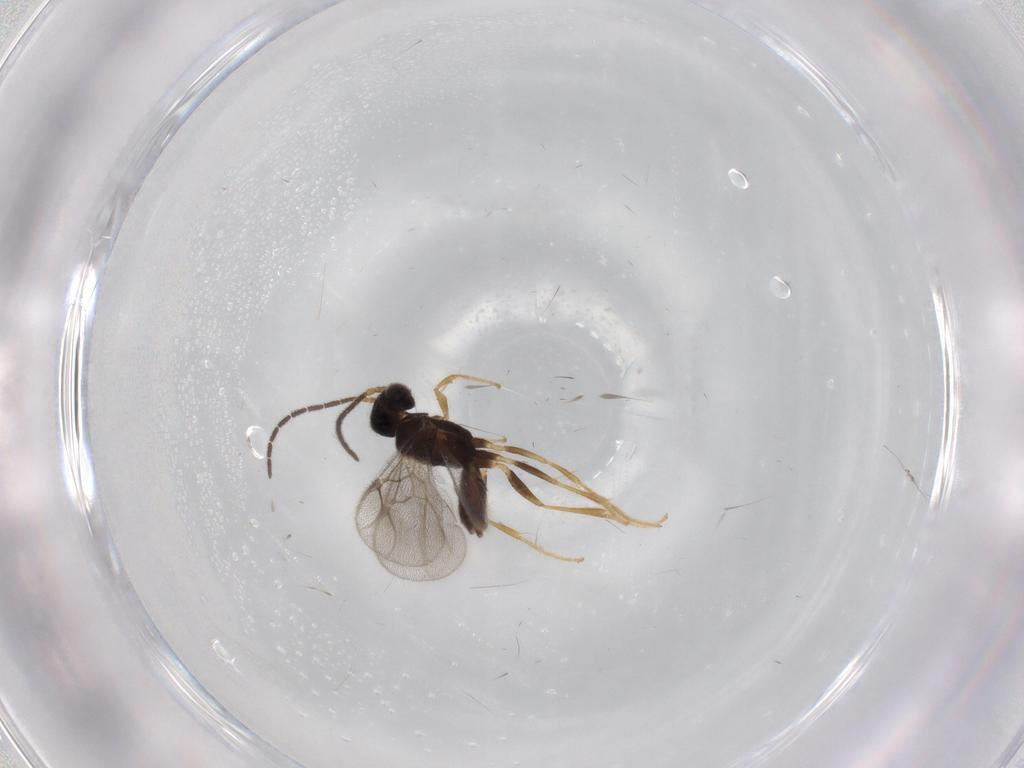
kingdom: Animalia
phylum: Arthropoda
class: Insecta
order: Hymenoptera
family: Dryinidae
